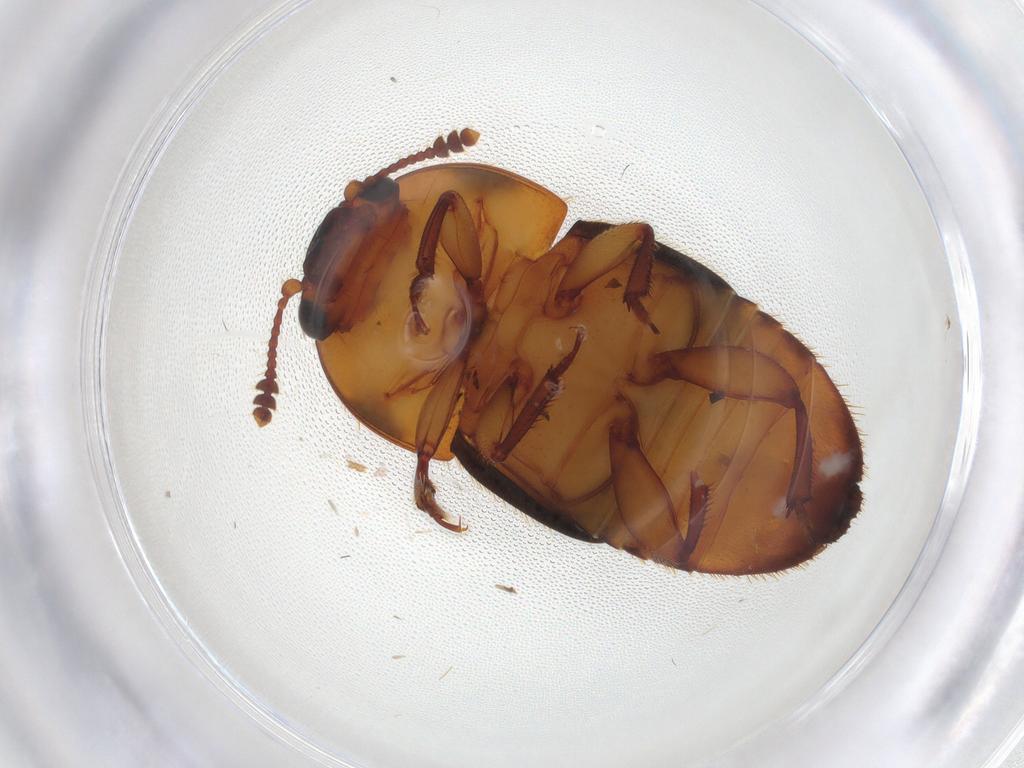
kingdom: Animalia
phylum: Arthropoda
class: Insecta
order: Coleoptera
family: Nitidulidae
